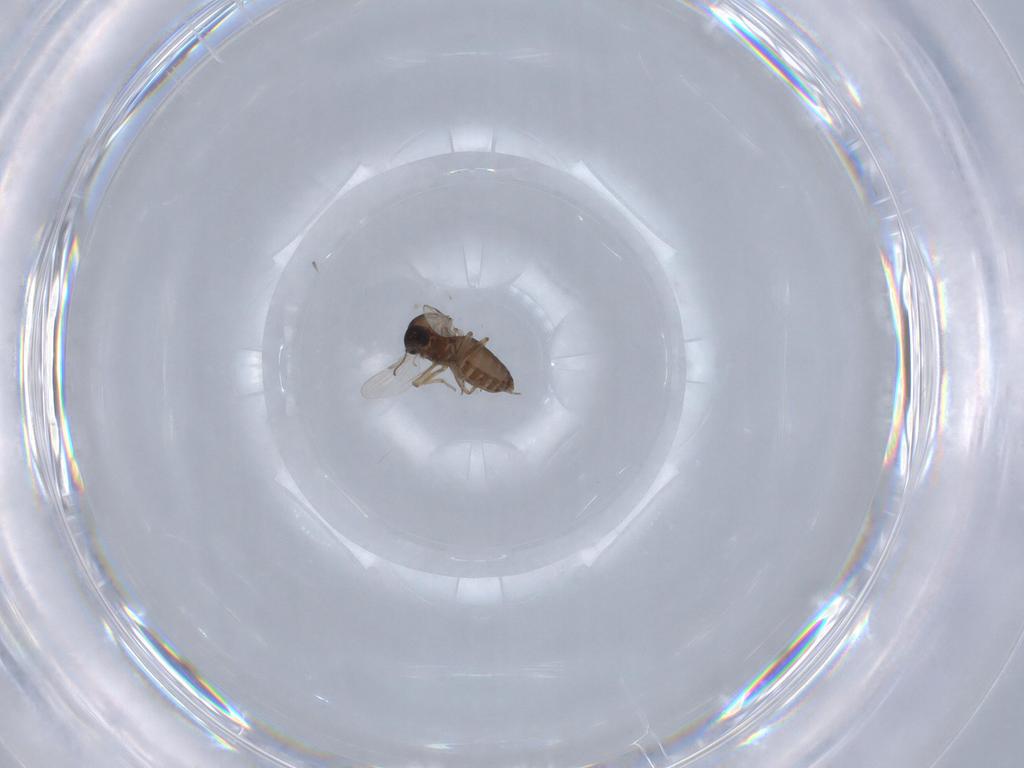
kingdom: Animalia
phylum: Arthropoda
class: Insecta
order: Diptera
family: Ceratopogonidae
